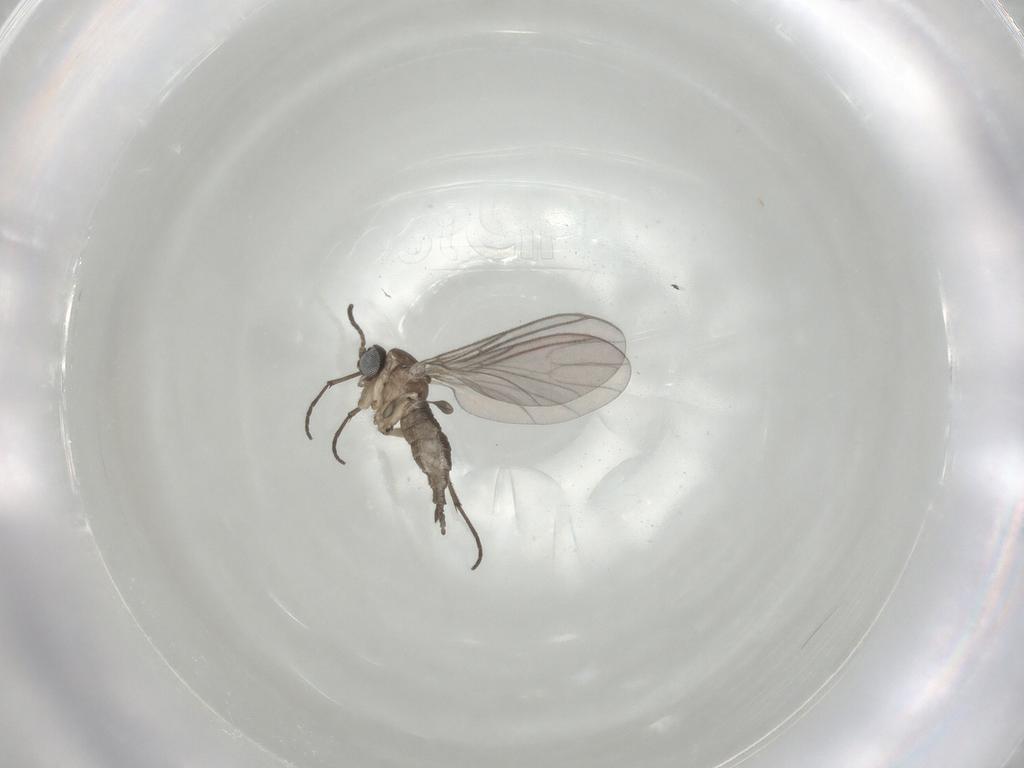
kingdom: Animalia
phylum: Arthropoda
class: Insecta
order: Diptera
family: Sciaridae
